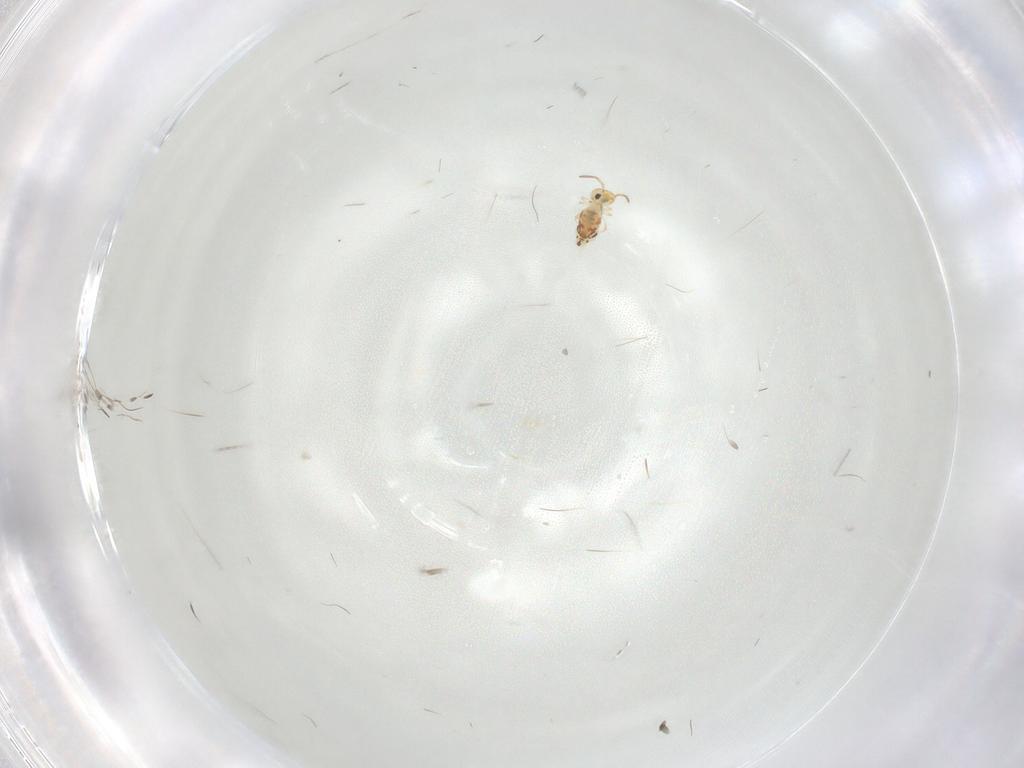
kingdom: Animalia
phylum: Arthropoda
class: Collembola
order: Symphypleona
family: Bourletiellidae
